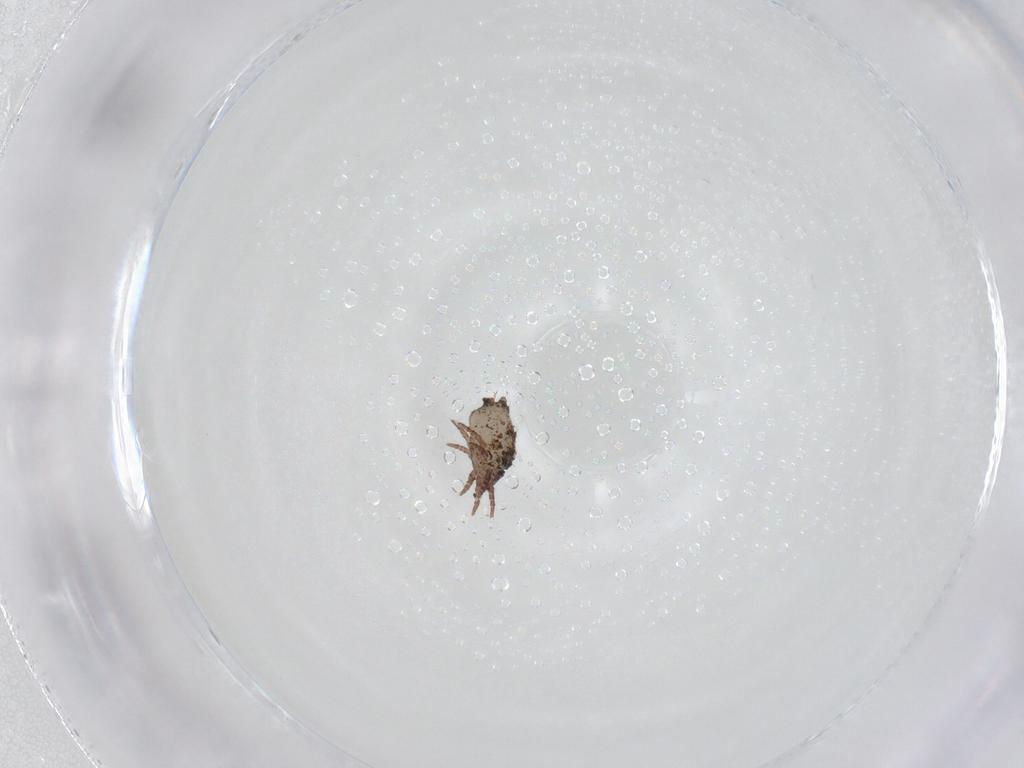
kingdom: Animalia
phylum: Arthropoda
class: Arachnida
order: Sarcoptiformes
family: Crotoniidae
